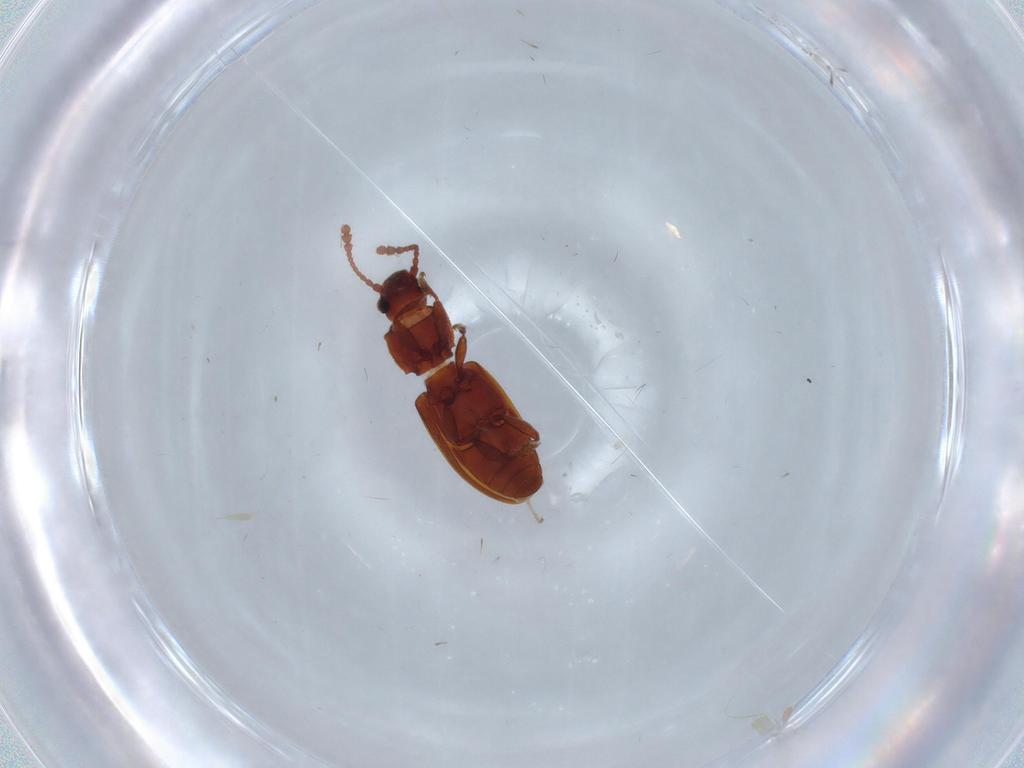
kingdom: Animalia
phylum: Arthropoda
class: Insecta
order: Coleoptera
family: Silvanidae
